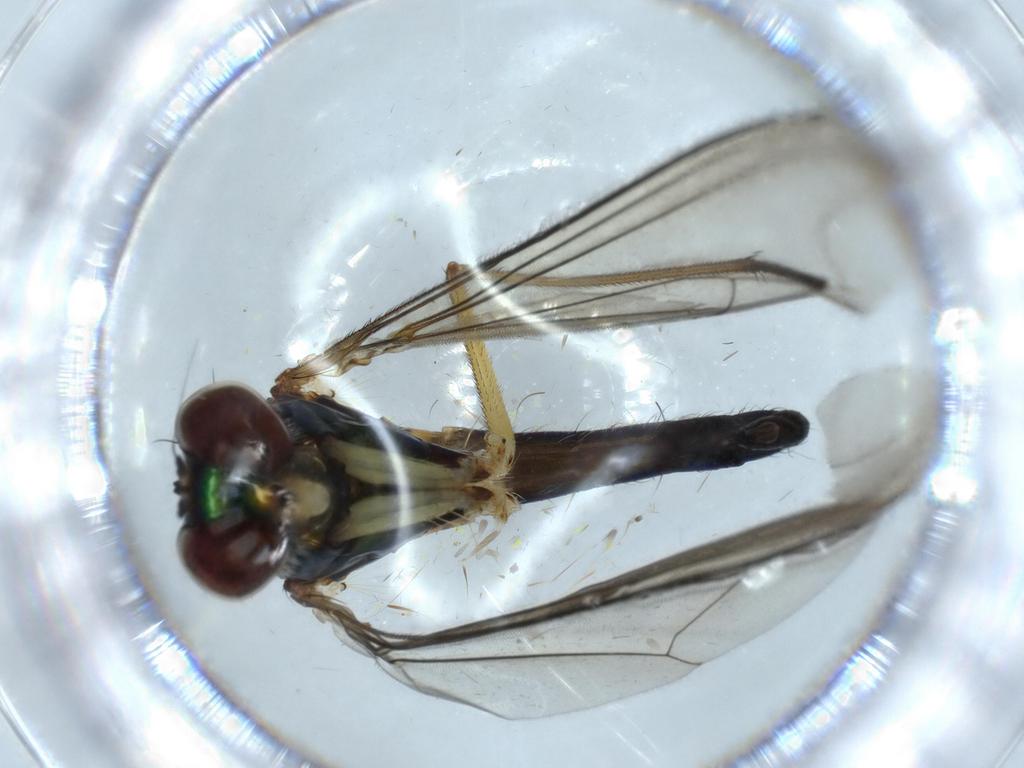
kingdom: Animalia
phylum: Arthropoda
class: Insecta
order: Diptera
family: Dolichopodidae
